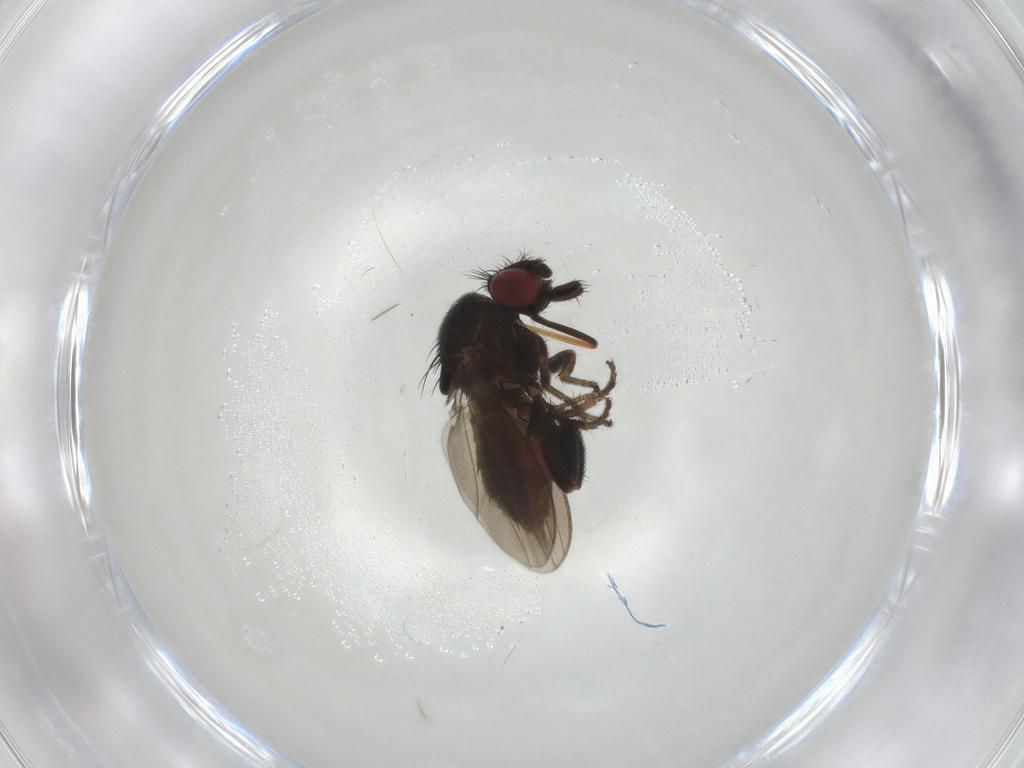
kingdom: Animalia
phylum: Arthropoda
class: Insecta
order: Diptera
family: Milichiidae
